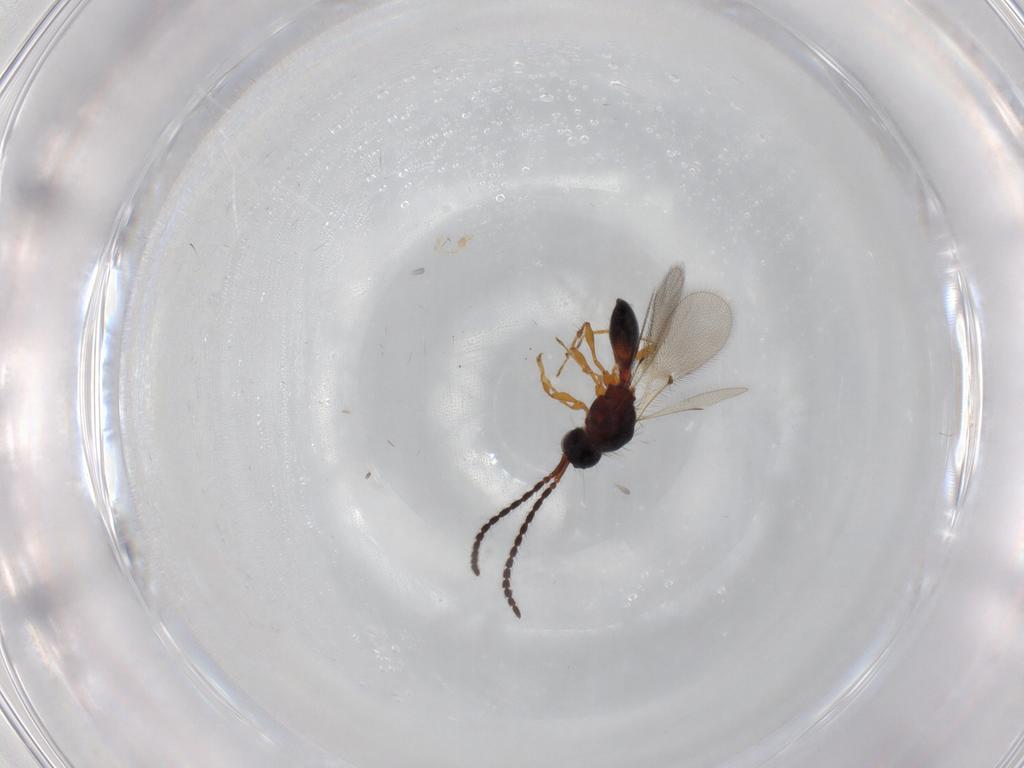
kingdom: Animalia
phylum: Arthropoda
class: Insecta
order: Hymenoptera
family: Diapriidae
